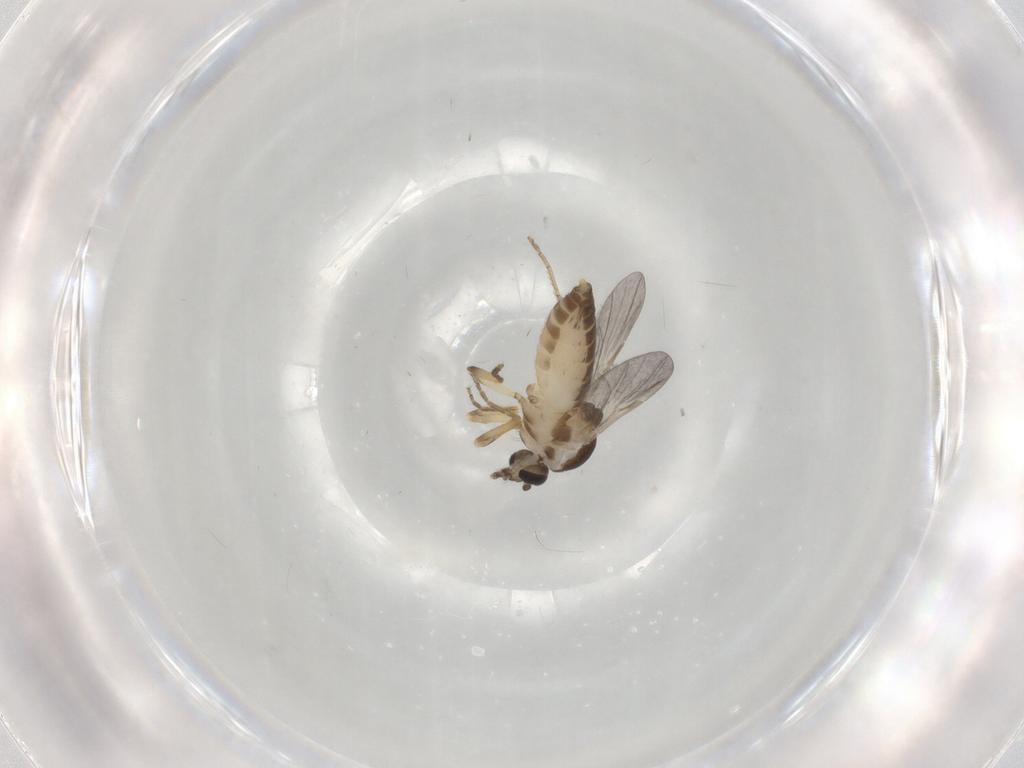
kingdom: Animalia
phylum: Arthropoda
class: Insecta
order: Diptera
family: Ceratopogonidae
